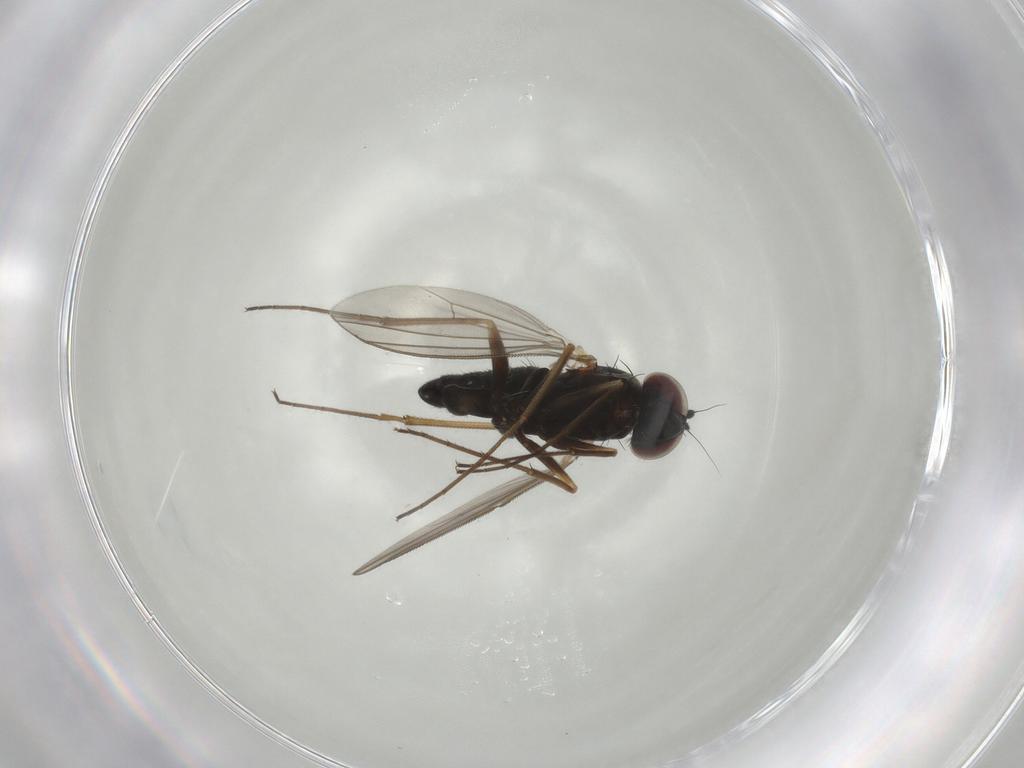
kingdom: Animalia
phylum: Arthropoda
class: Insecta
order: Diptera
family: Dolichopodidae
